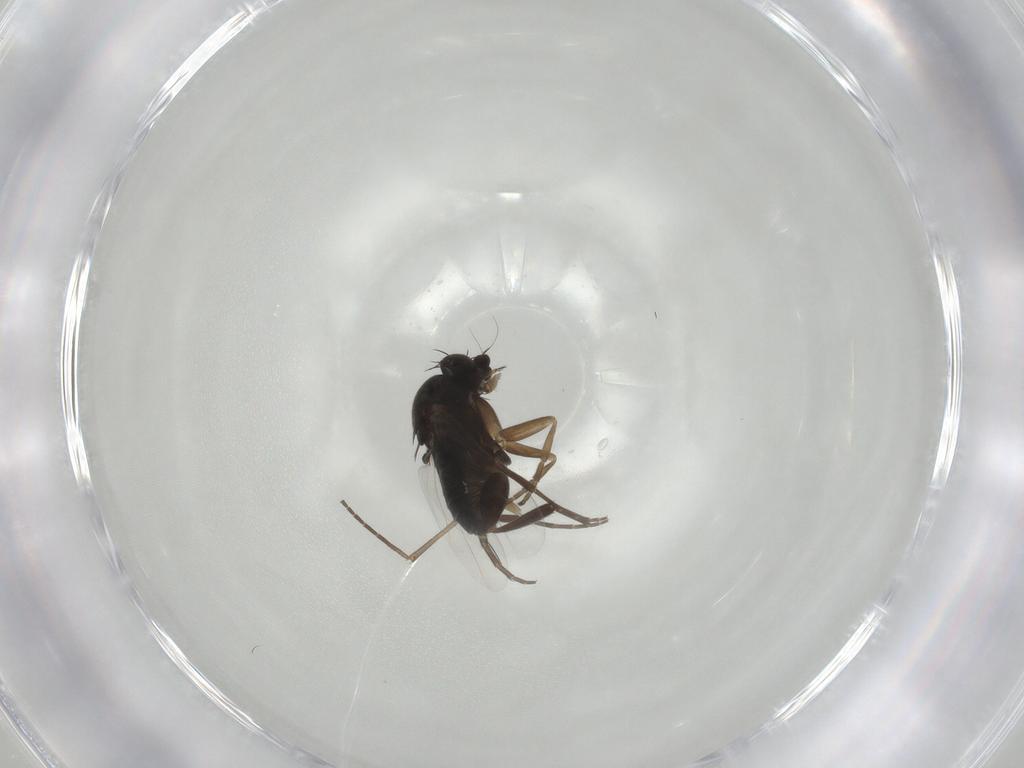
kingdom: Animalia
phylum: Arthropoda
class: Insecta
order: Diptera
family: Phoridae
